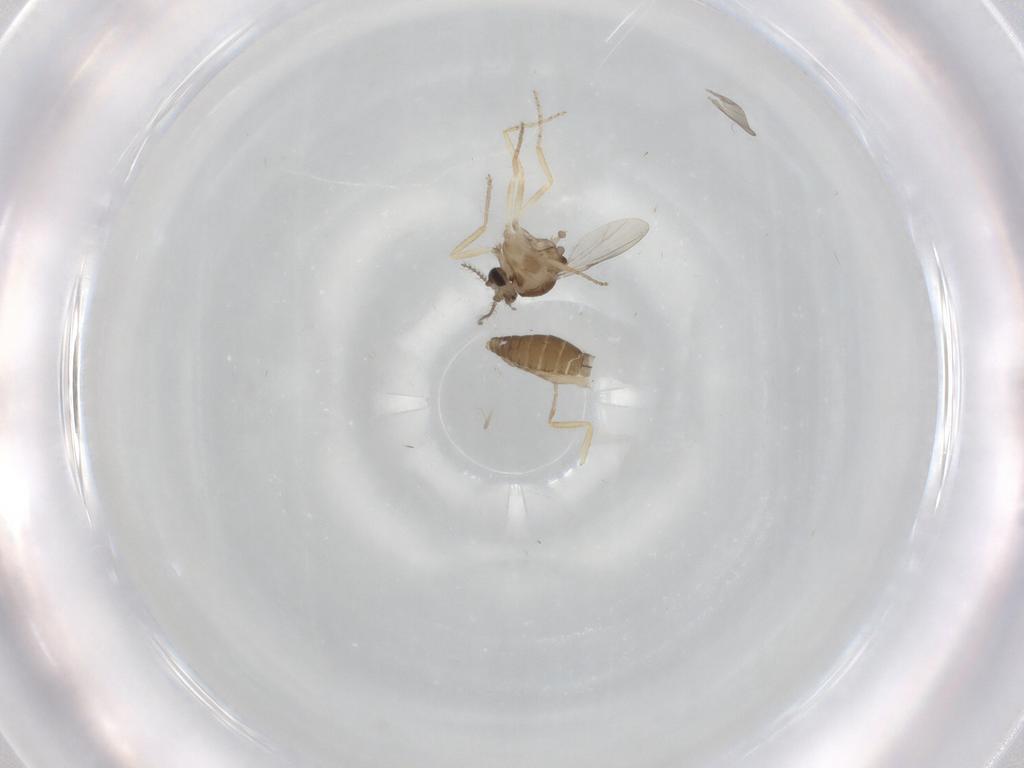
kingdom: Animalia
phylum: Arthropoda
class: Insecta
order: Diptera
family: Ceratopogonidae
